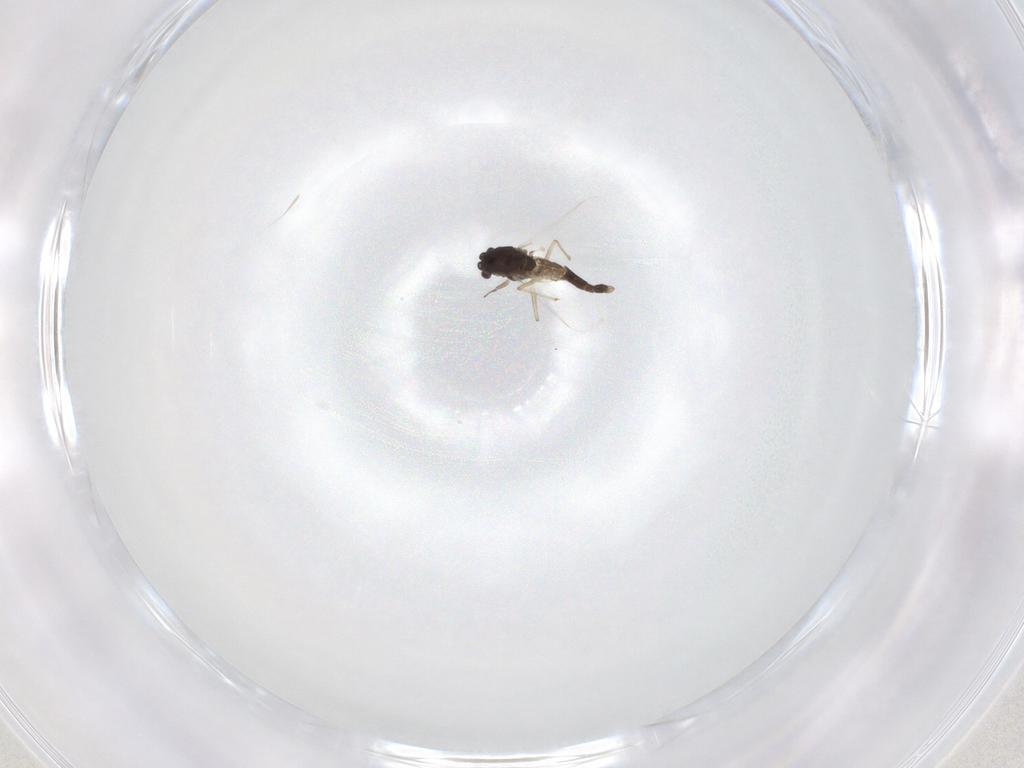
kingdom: Animalia
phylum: Arthropoda
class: Insecta
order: Diptera
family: Chironomidae
